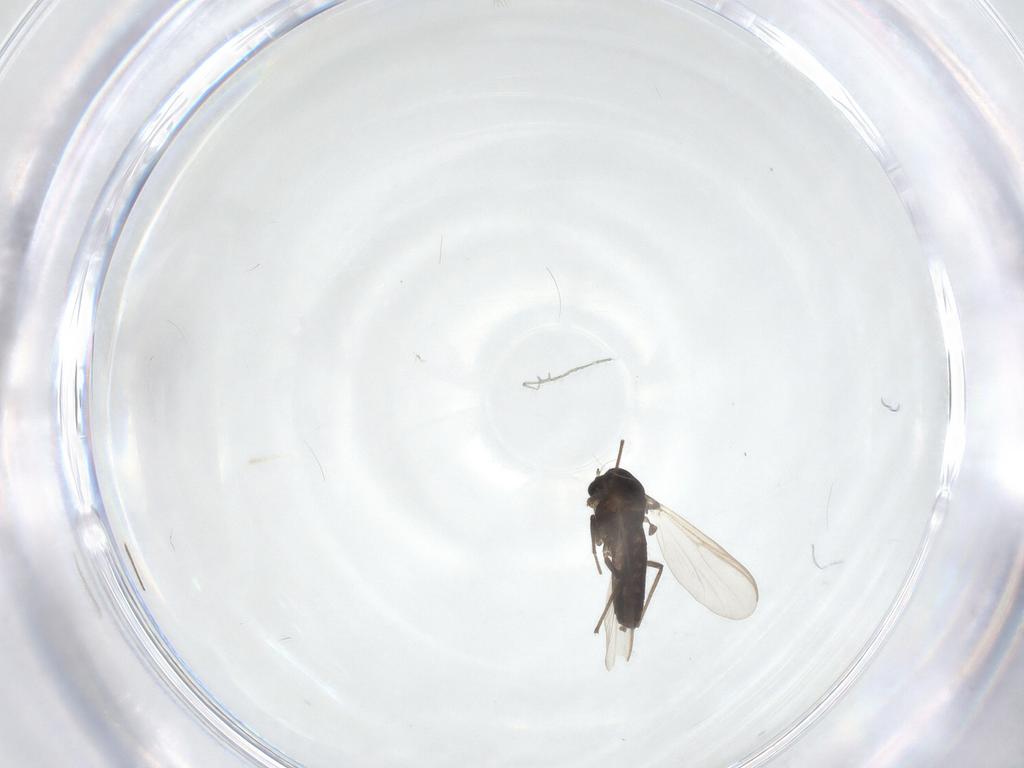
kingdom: Animalia
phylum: Arthropoda
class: Insecta
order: Diptera
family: Chironomidae
